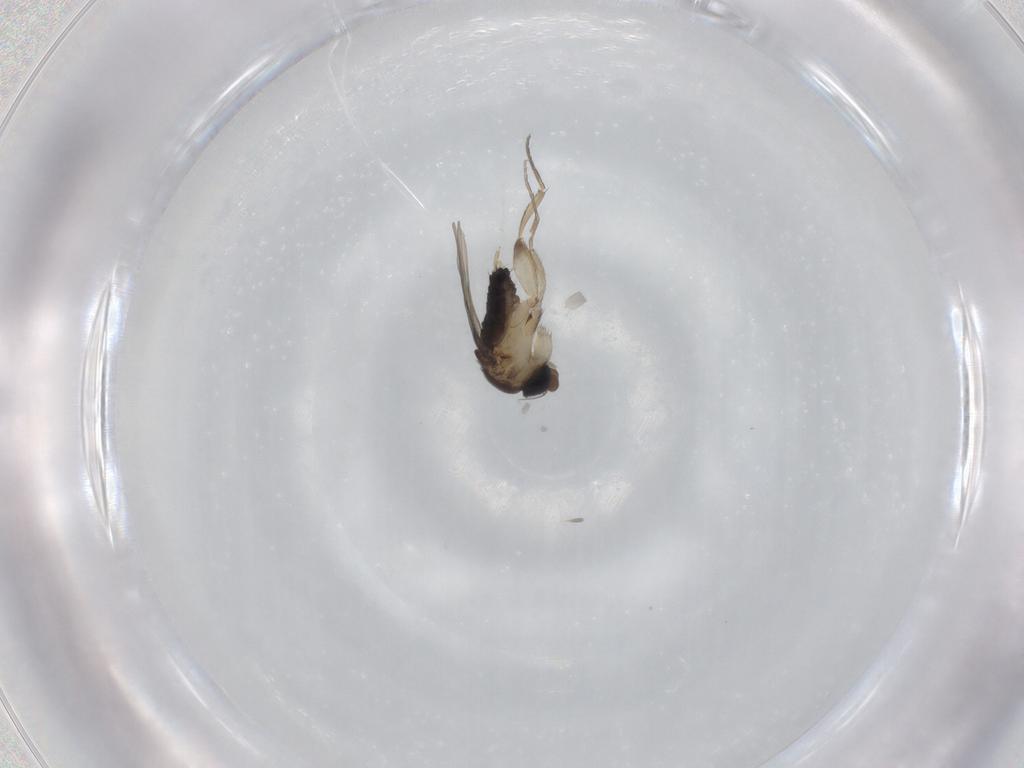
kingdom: Animalia
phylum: Arthropoda
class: Insecta
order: Diptera
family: Phoridae
